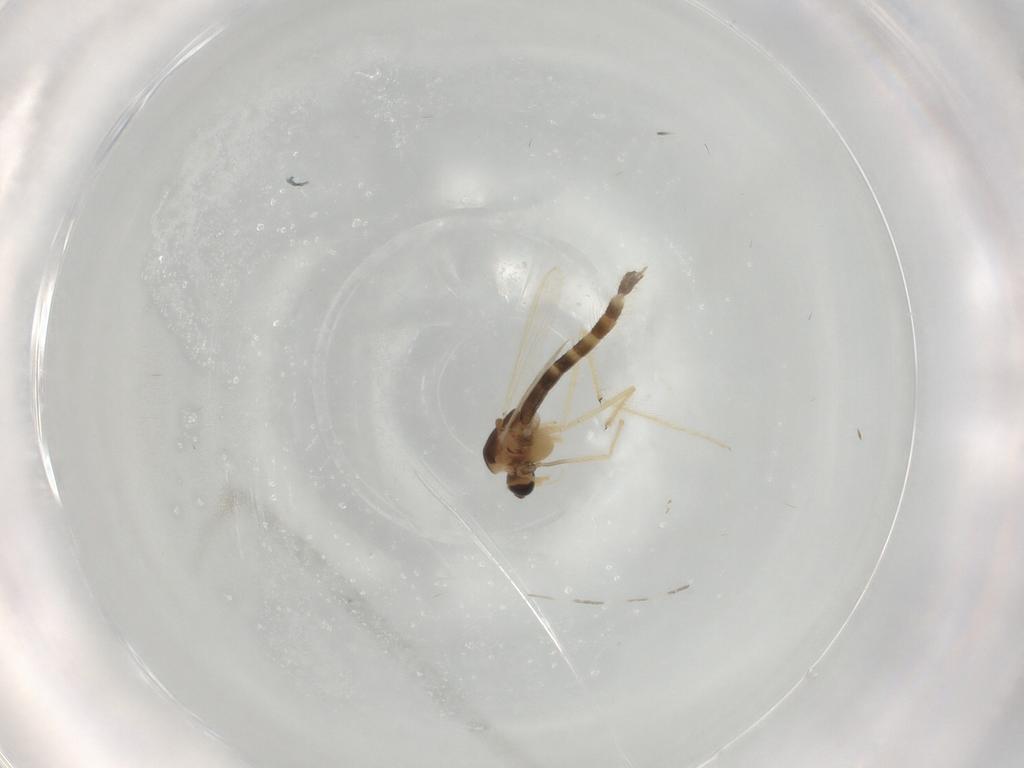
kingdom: Animalia
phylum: Arthropoda
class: Insecta
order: Diptera
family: Chironomidae
